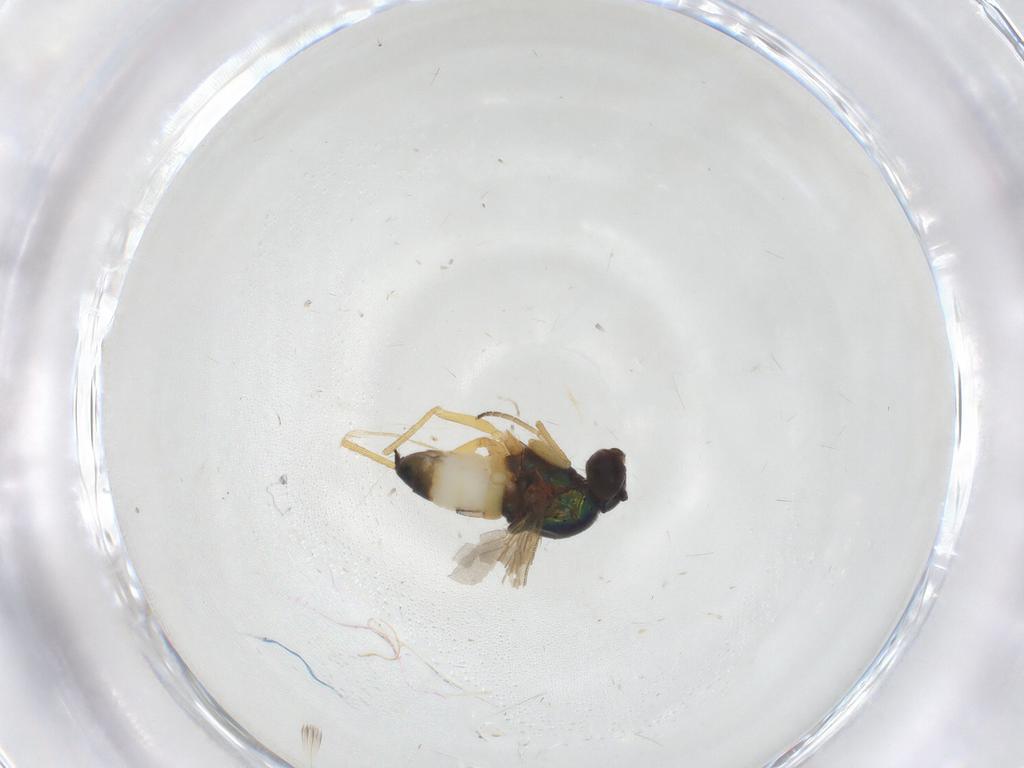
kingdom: Animalia
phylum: Arthropoda
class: Insecta
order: Diptera
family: Dolichopodidae
